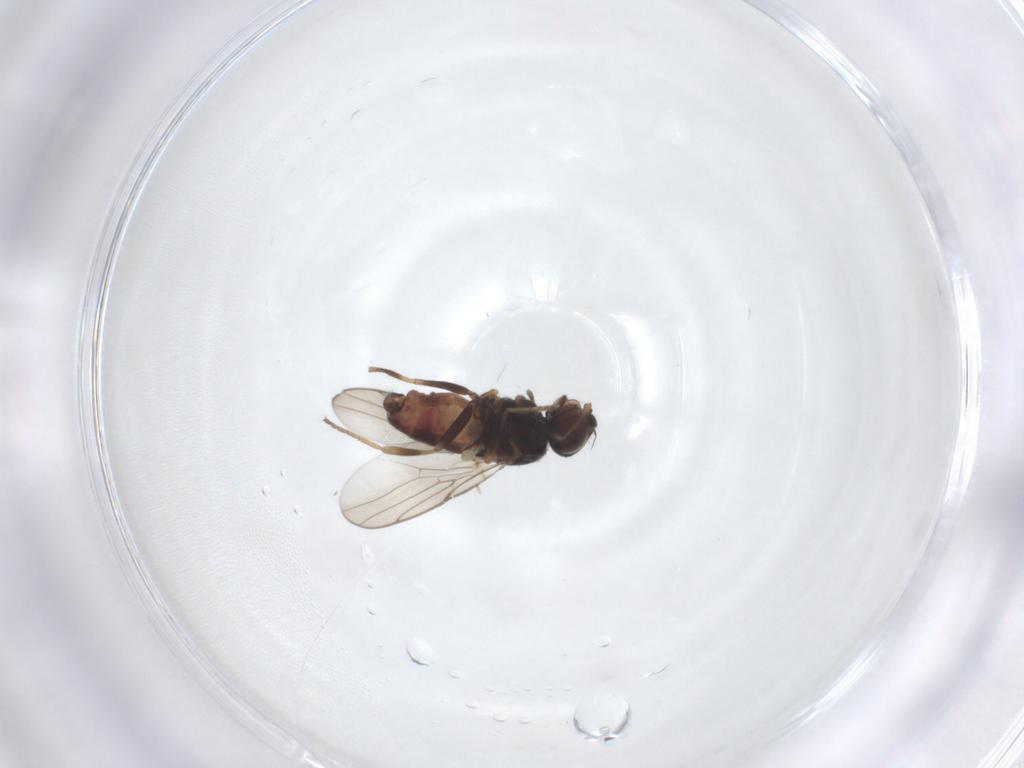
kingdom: Animalia
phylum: Arthropoda
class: Insecta
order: Diptera
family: Chloropidae
